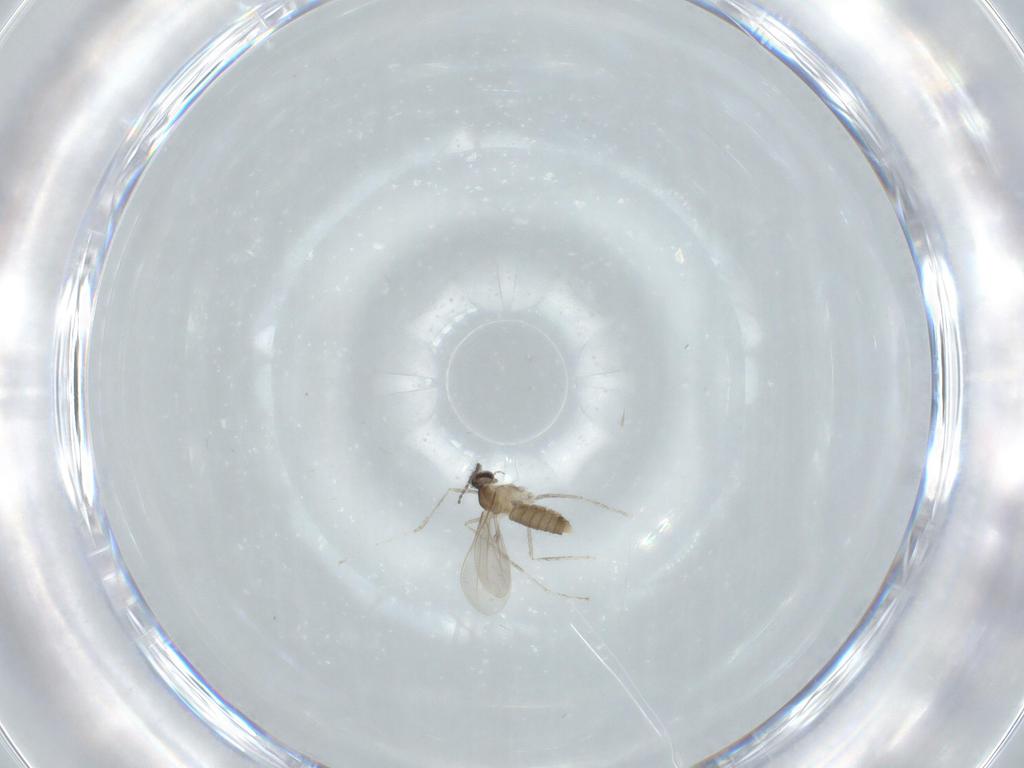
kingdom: Animalia
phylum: Arthropoda
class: Insecta
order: Diptera
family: Cecidomyiidae
